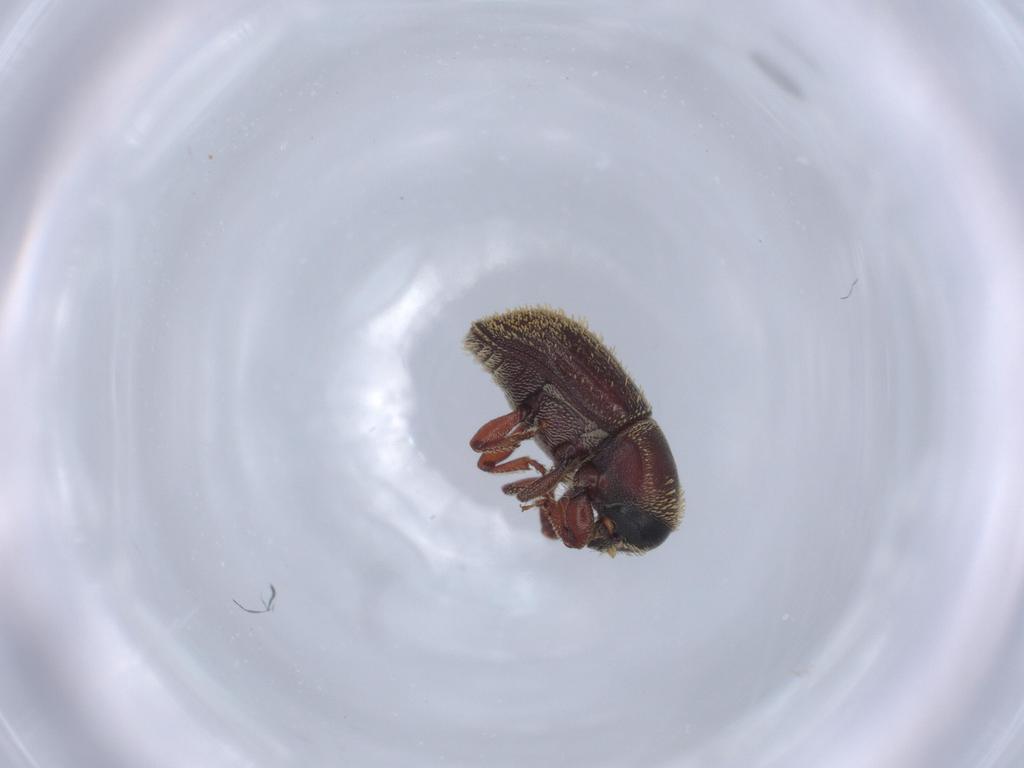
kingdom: Animalia
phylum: Arthropoda
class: Insecta
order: Coleoptera
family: Curculionidae
